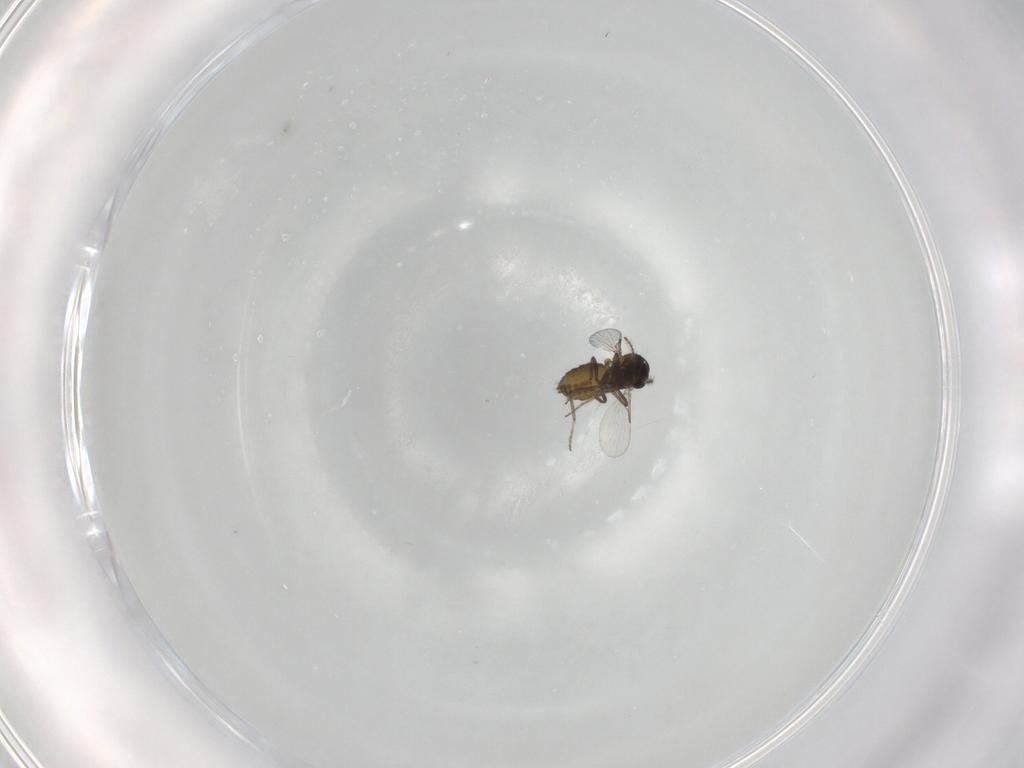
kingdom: Animalia
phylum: Arthropoda
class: Insecta
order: Diptera
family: Ceratopogonidae
